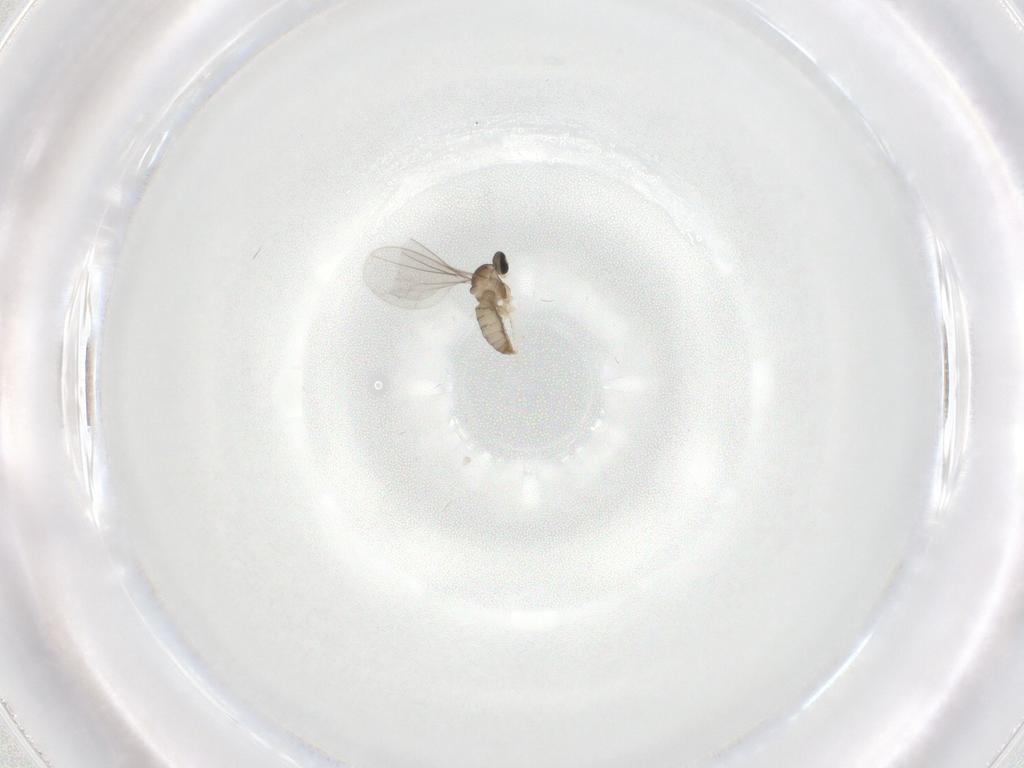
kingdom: Animalia
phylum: Arthropoda
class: Insecta
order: Diptera
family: Cecidomyiidae
